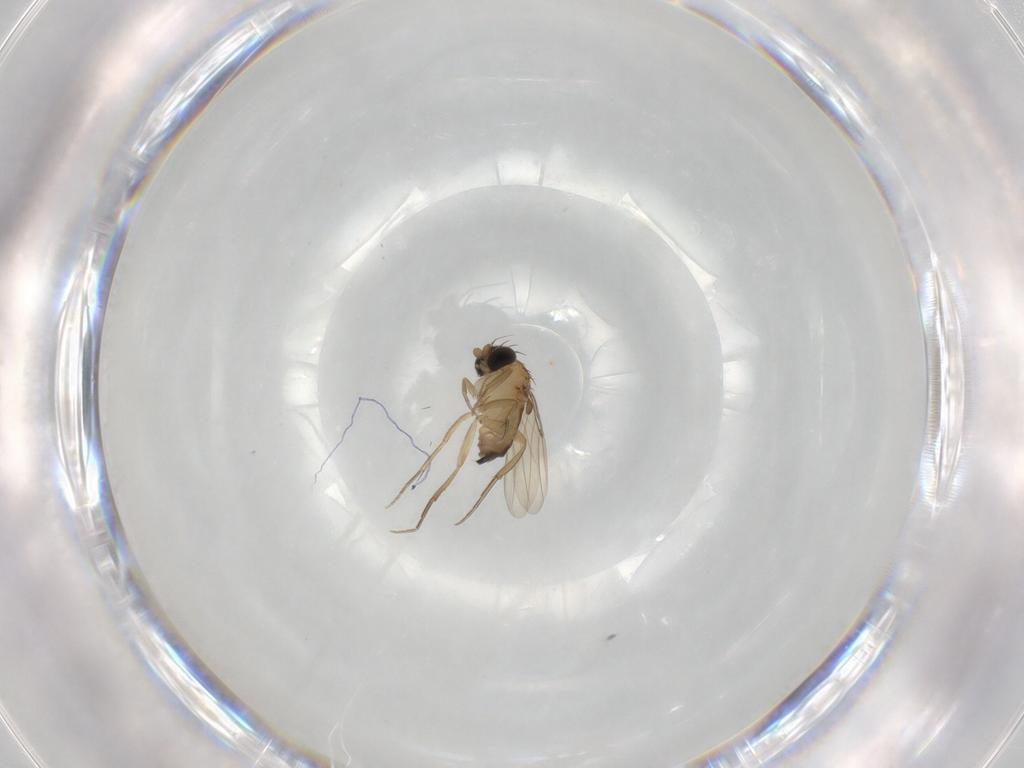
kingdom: Animalia
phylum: Arthropoda
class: Insecta
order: Diptera
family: Phoridae
